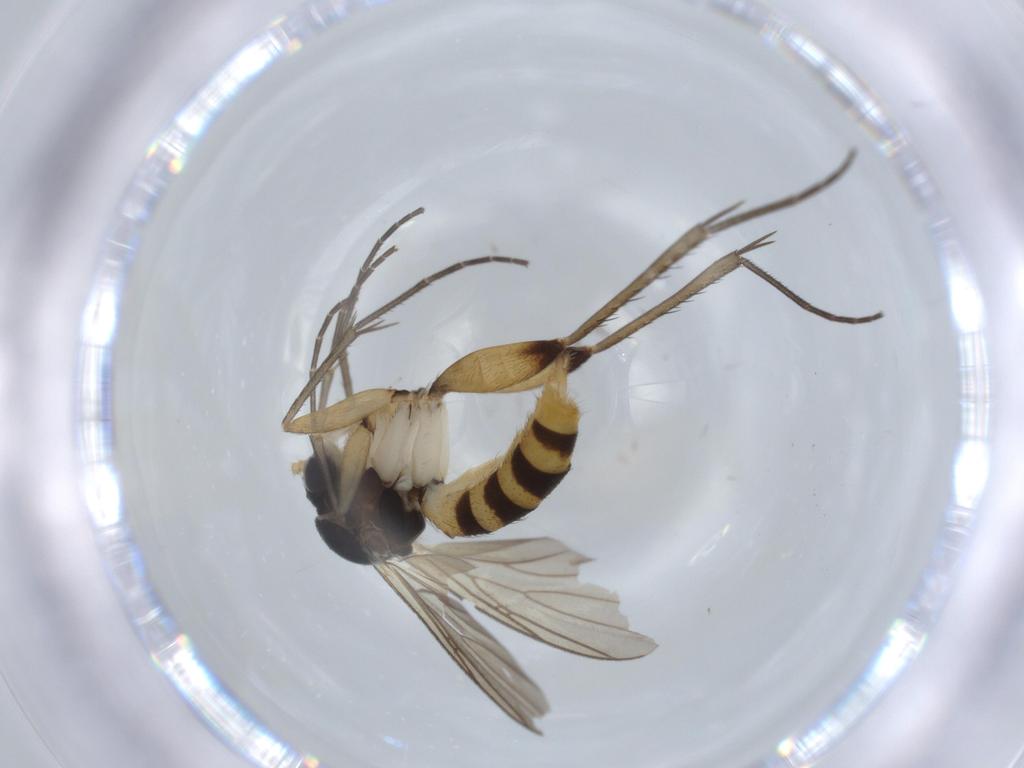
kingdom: Animalia
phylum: Arthropoda
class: Insecta
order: Diptera
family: Mycetophilidae
